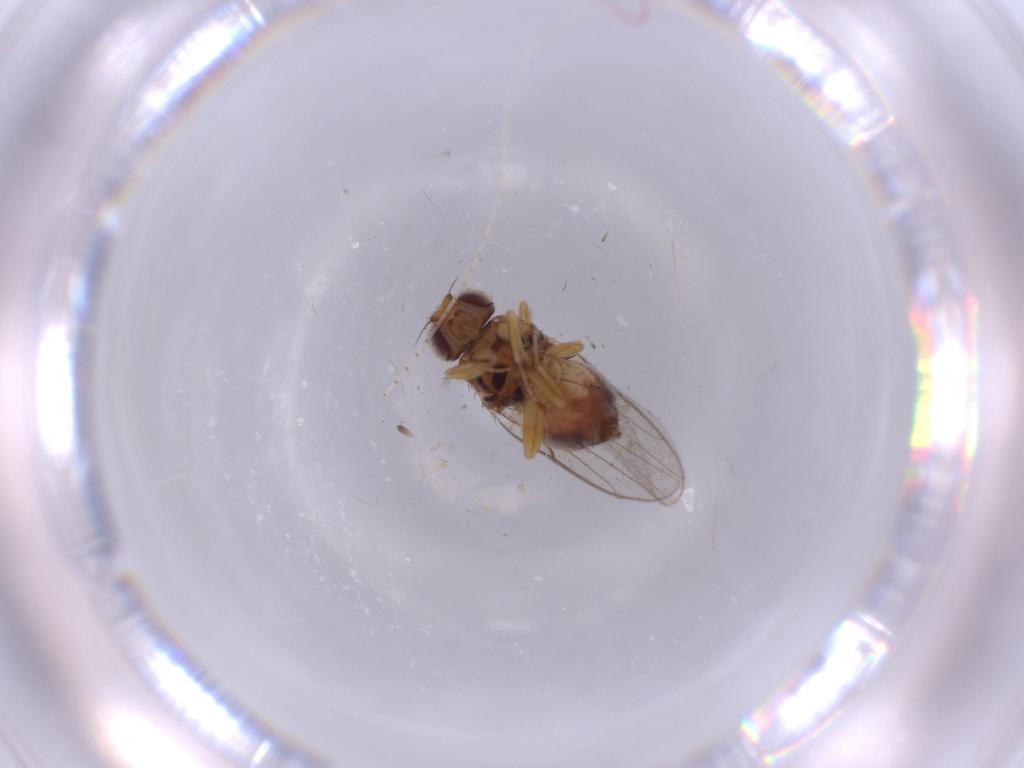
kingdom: Animalia
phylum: Arthropoda
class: Insecta
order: Diptera
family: Chloropidae
